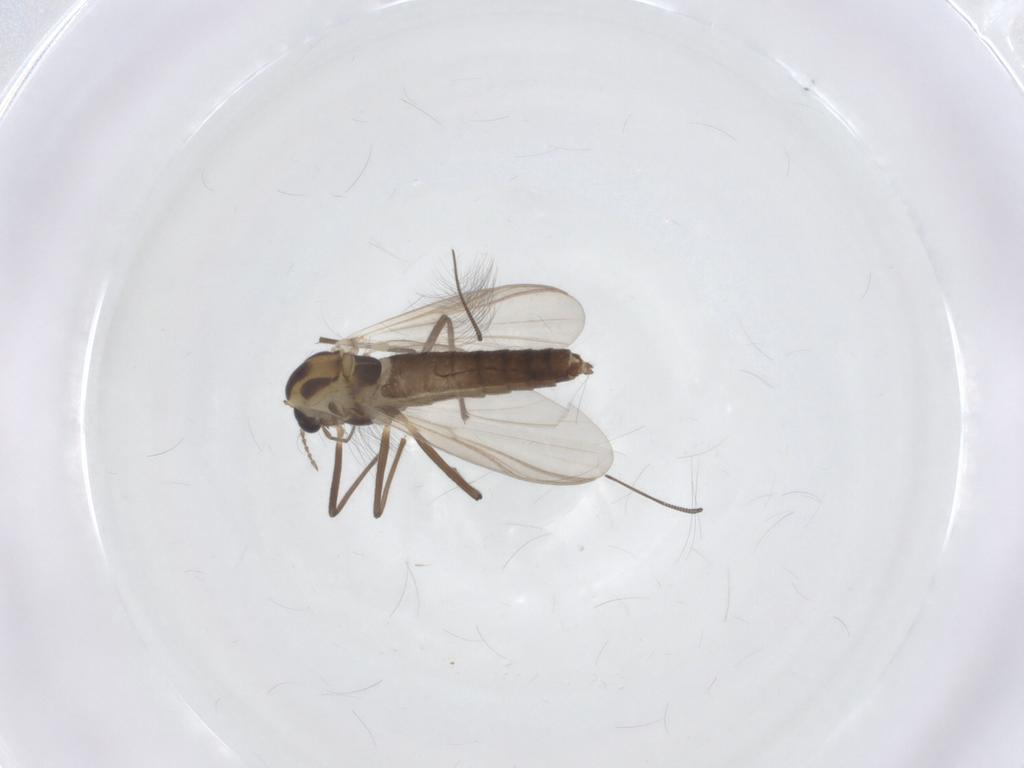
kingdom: Animalia
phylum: Arthropoda
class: Insecta
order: Diptera
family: Chironomidae
